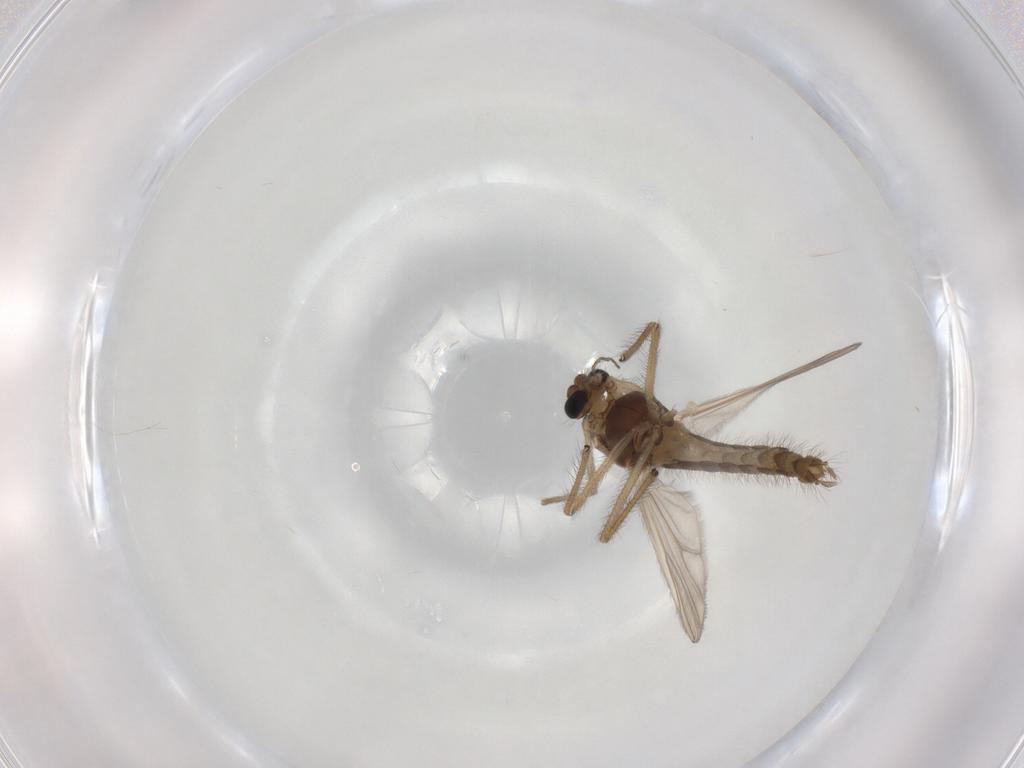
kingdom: Animalia
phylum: Arthropoda
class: Insecta
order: Diptera
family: Chironomidae
